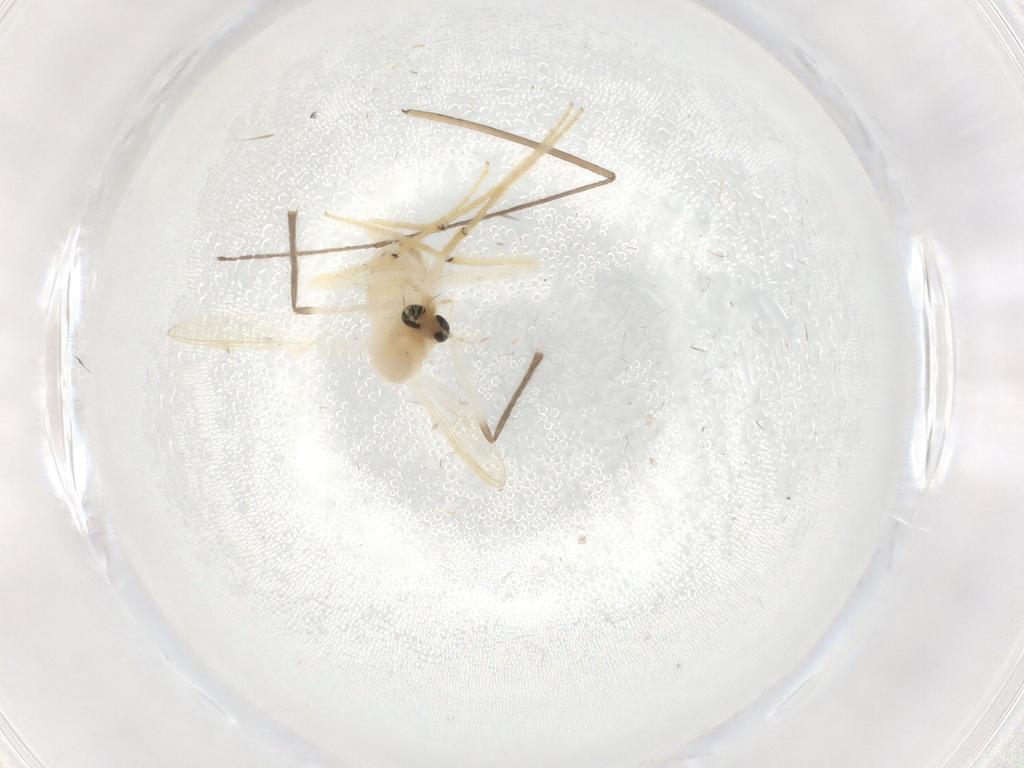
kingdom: Animalia
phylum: Arthropoda
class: Insecta
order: Diptera
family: Chironomidae
